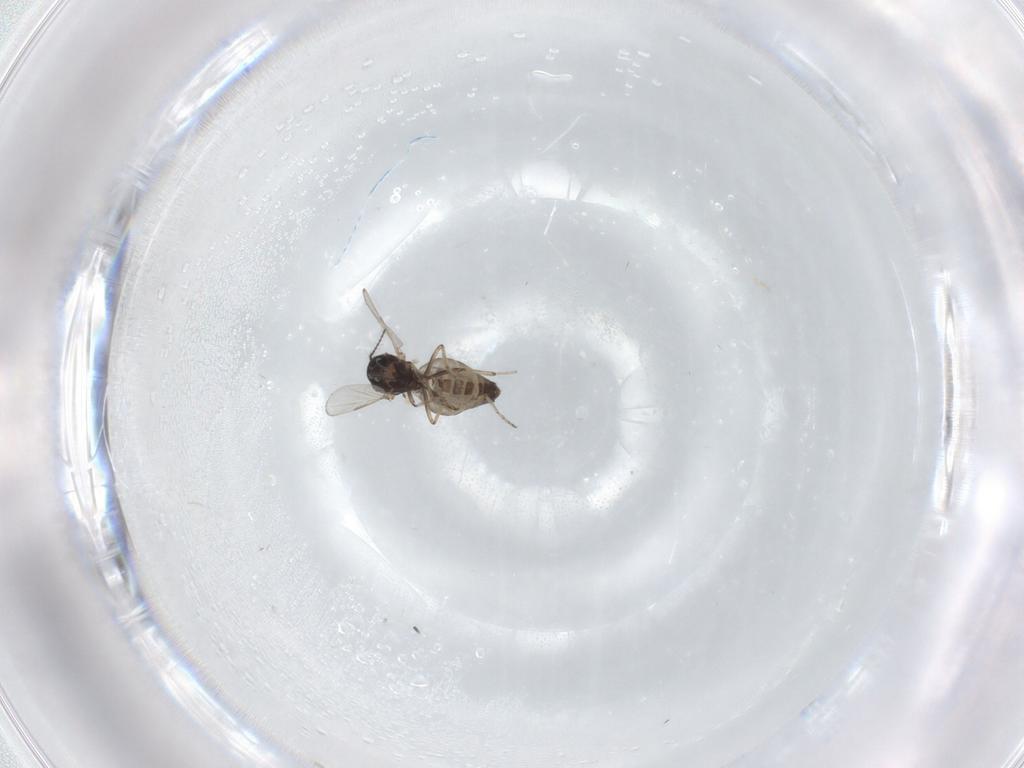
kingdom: Animalia
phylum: Arthropoda
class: Insecta
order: Diptera
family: Ceratopogonidae
